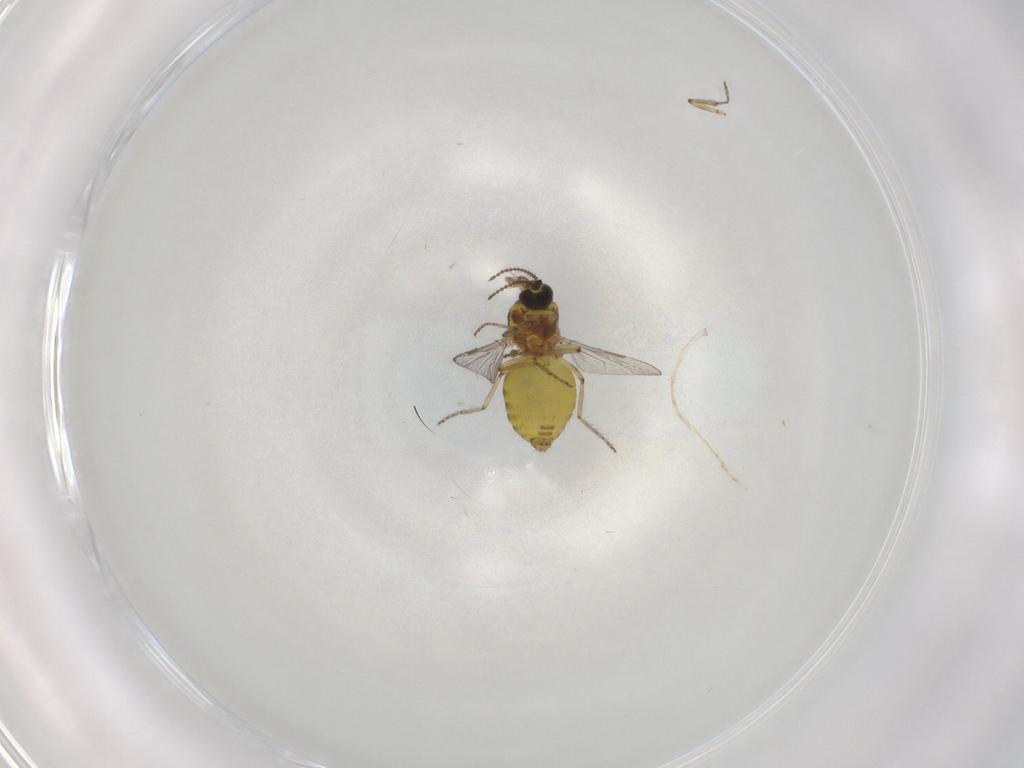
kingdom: Animalia
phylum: Arthropoda
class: Insecta
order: Diptera
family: Ceratopogonidae
